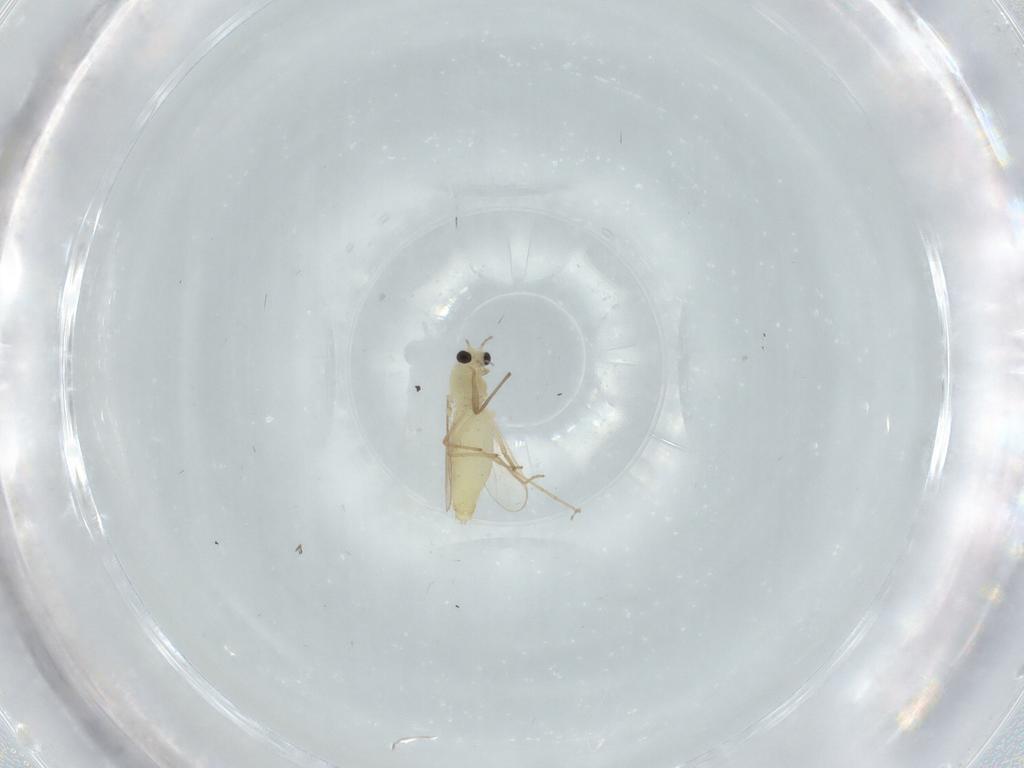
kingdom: Animalia
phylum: Arthropoda
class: Insecta
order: Diptera
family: Chironomidae
